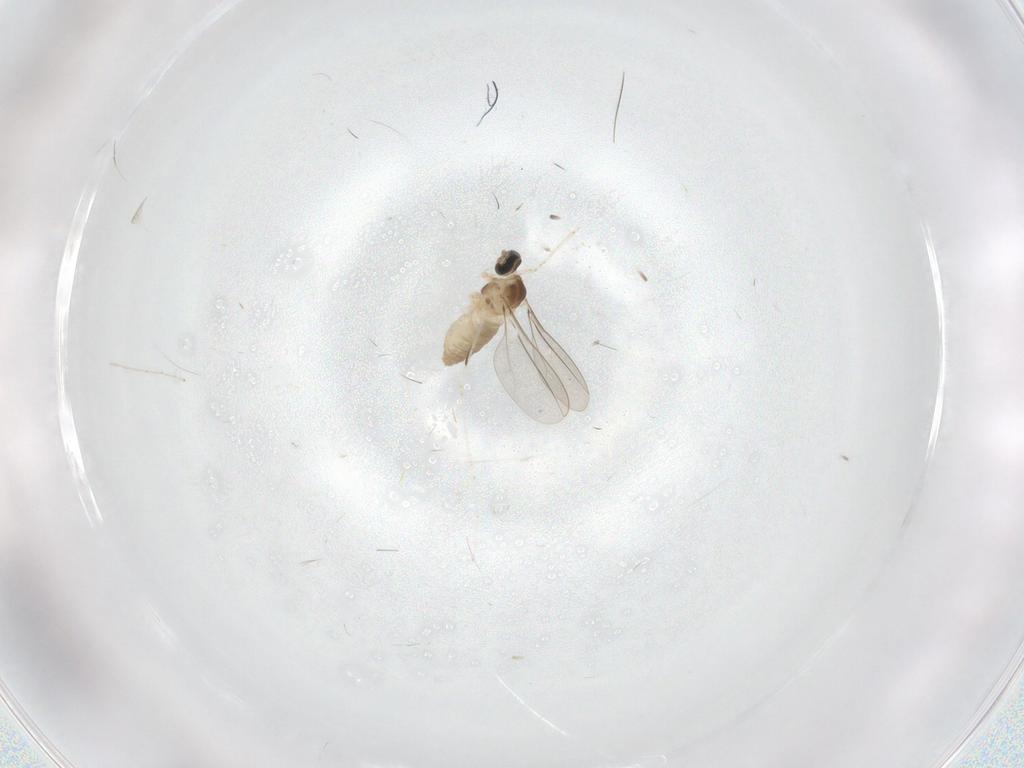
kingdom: Animalia
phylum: Arthropoda
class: Insecta
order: Diptera
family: Cecidomyiidae
